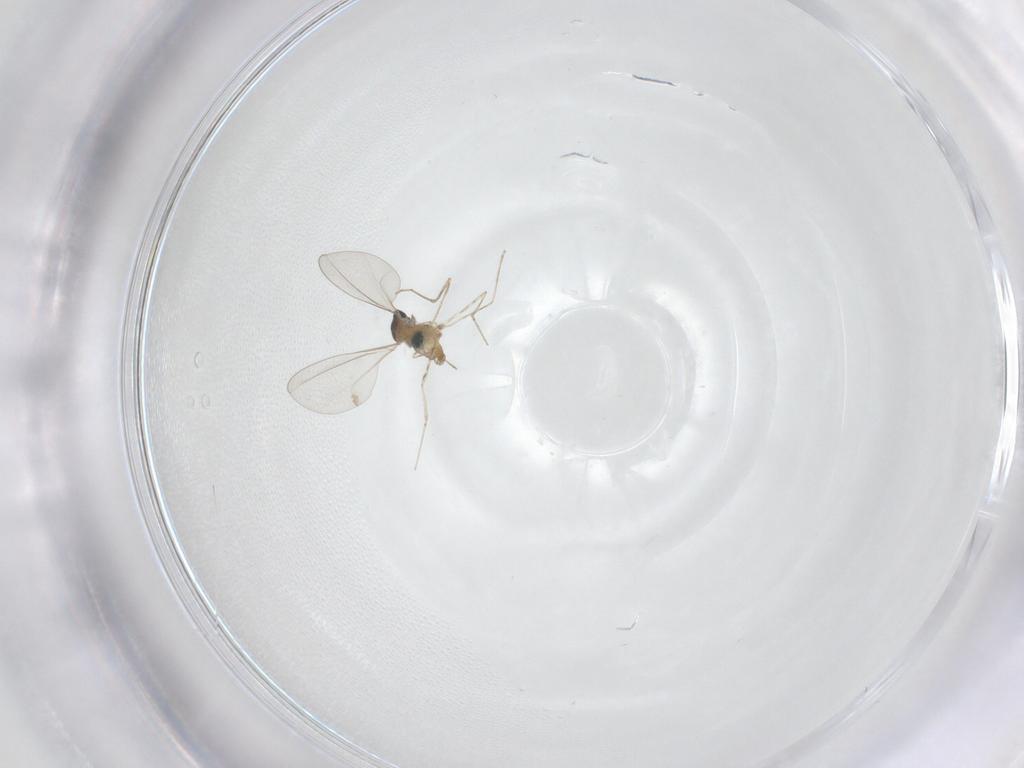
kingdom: Animalia
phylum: Arthropoda
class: Insecta
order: Diptera
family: Cecidomyiidae
